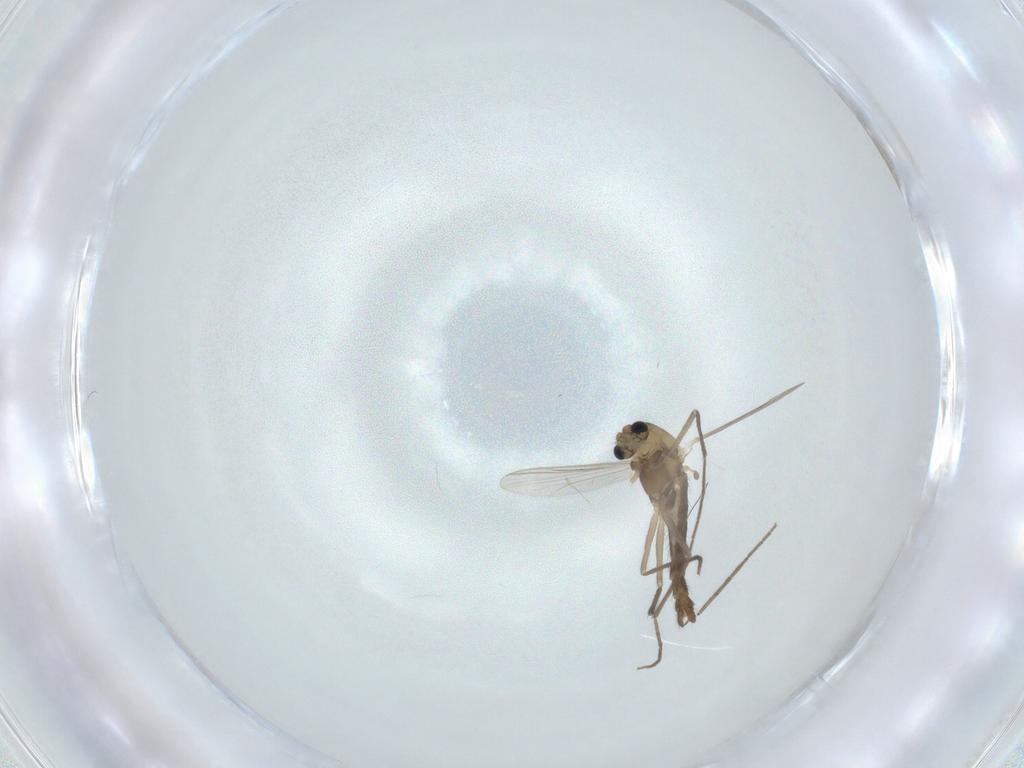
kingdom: Animalia
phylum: Arthropoda
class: Insecta
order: Diptera
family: Chironomidae
